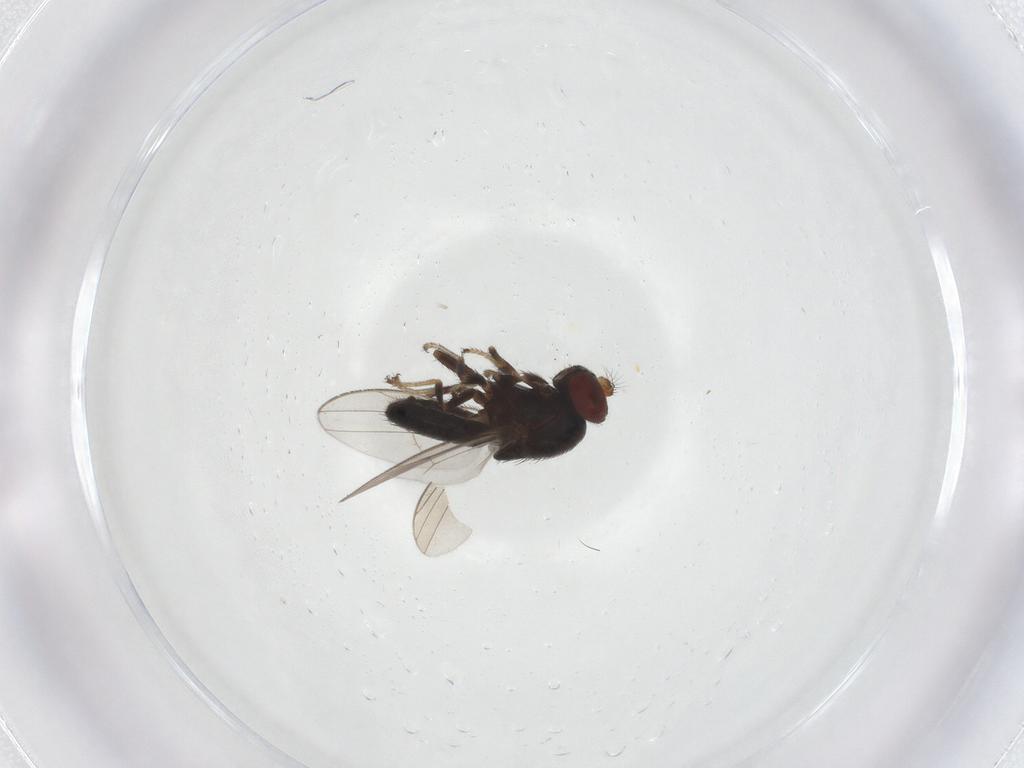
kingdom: Animalia
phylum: Arthropoda
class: Insecta
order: Diptera
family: Ephydridae
